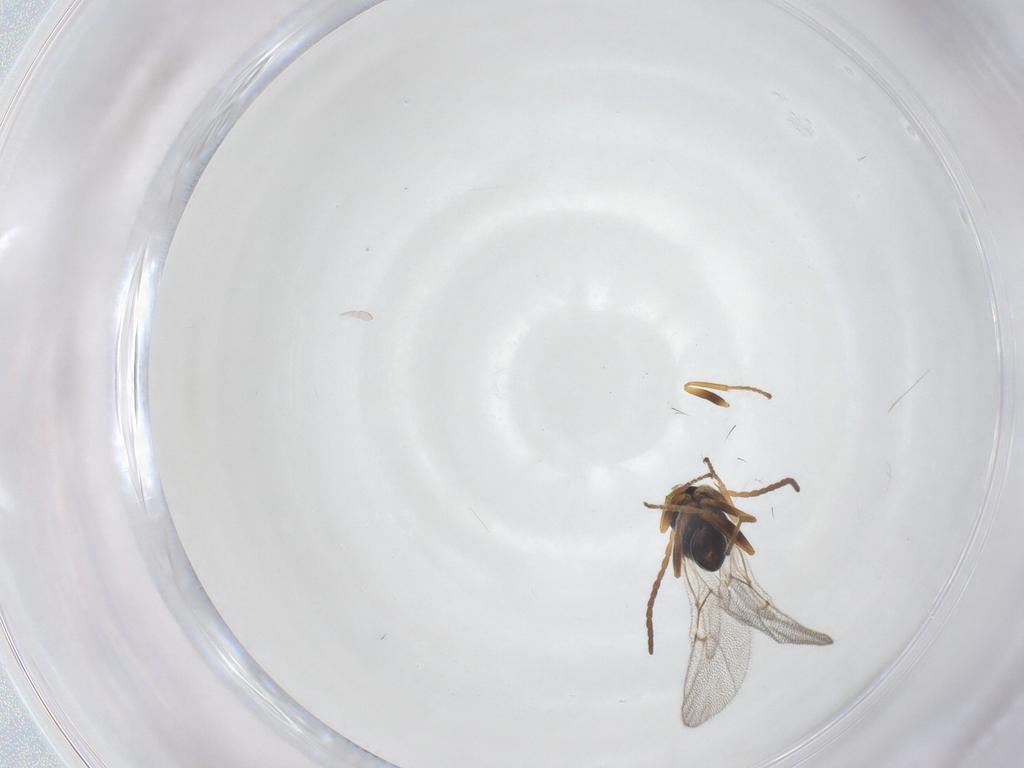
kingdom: Animalia
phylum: Arthropoda
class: Insecta
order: Hymenoptera
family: Cynipidae
